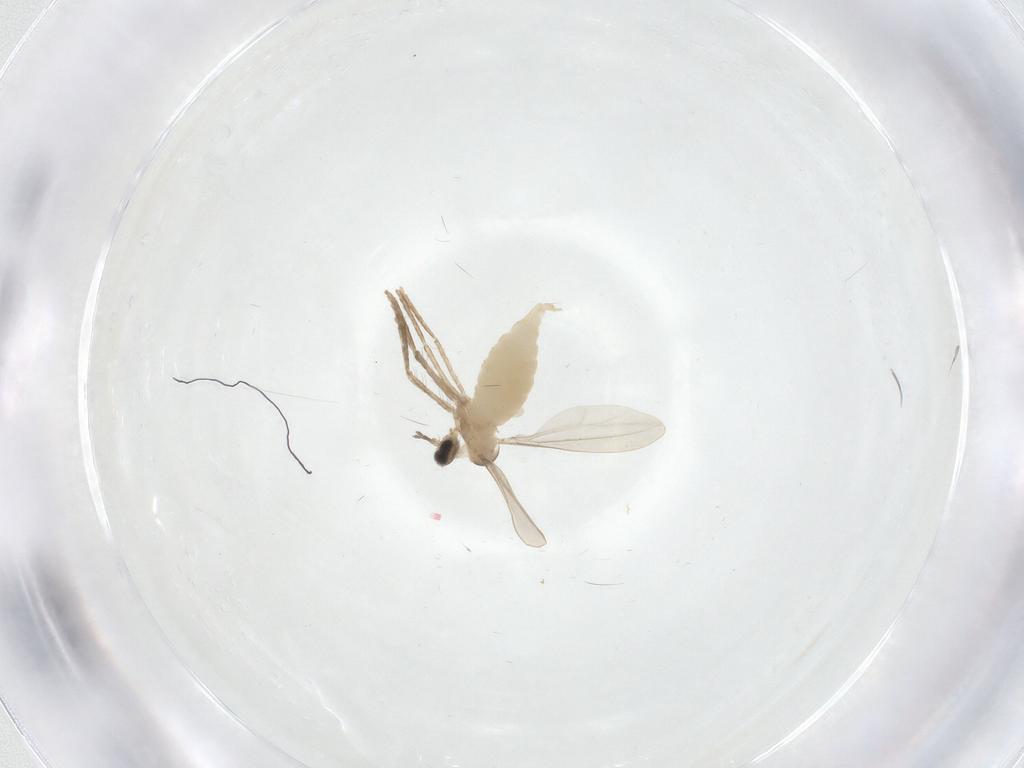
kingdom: Animalia
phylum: Arthropoda
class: Insecta
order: Diptera
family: Cecidomyiidae
